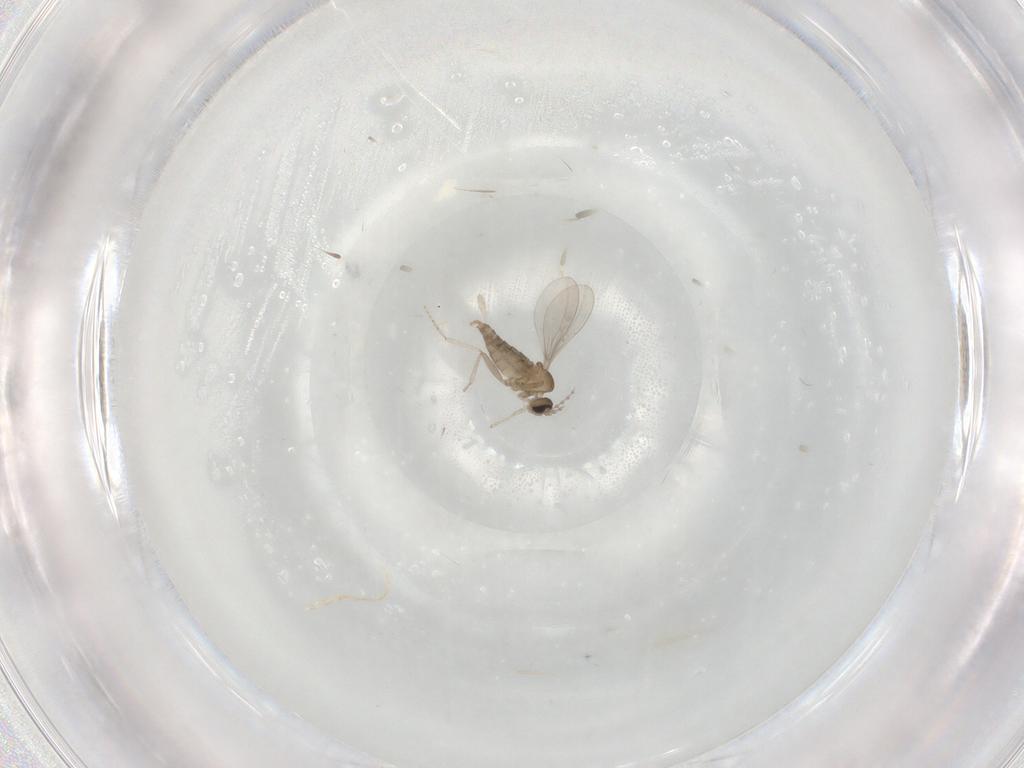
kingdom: Animalia
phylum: Arthropoda
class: Insecta
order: Diptera
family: Cecidomyiidae
